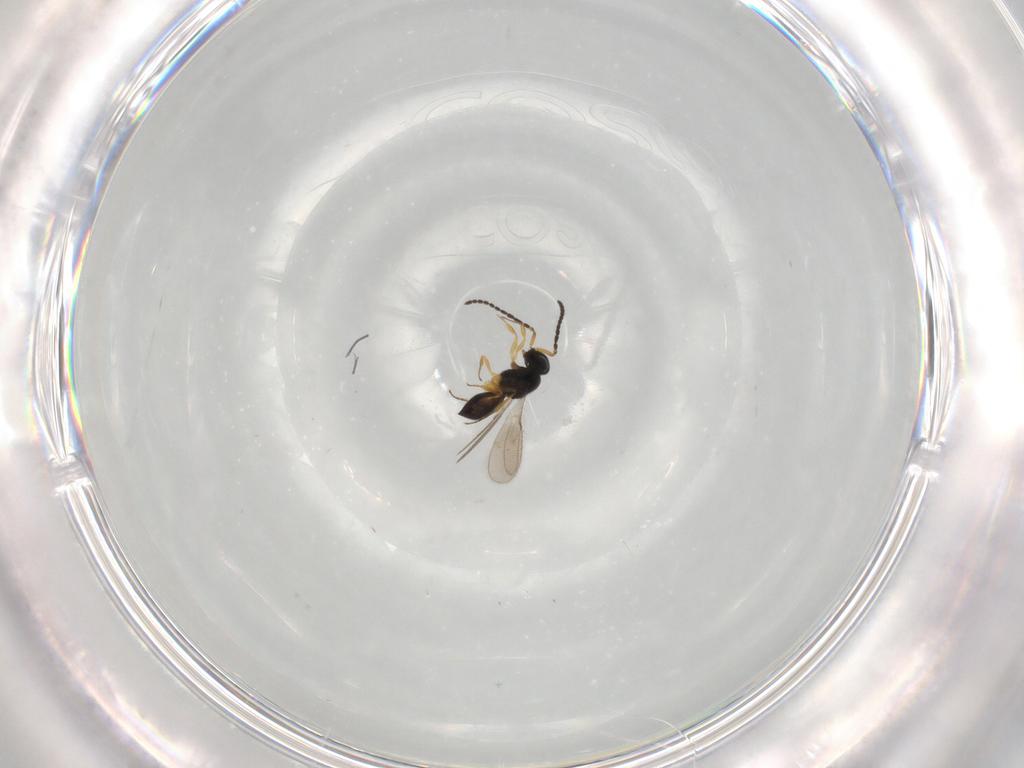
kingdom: Animalia
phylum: Arthropoda
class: Insecta
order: Hymenoptera
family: Scelionidae
